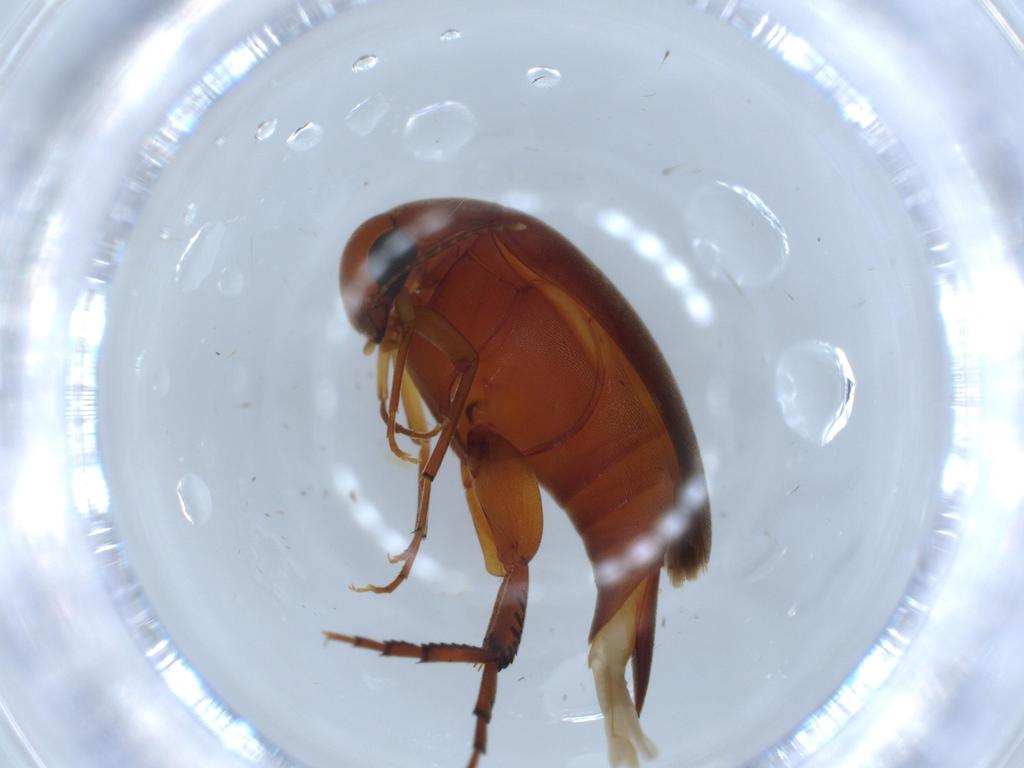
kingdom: Animalia
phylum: Arthropoda
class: Insecta
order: Coleoptera
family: Mordellidae
